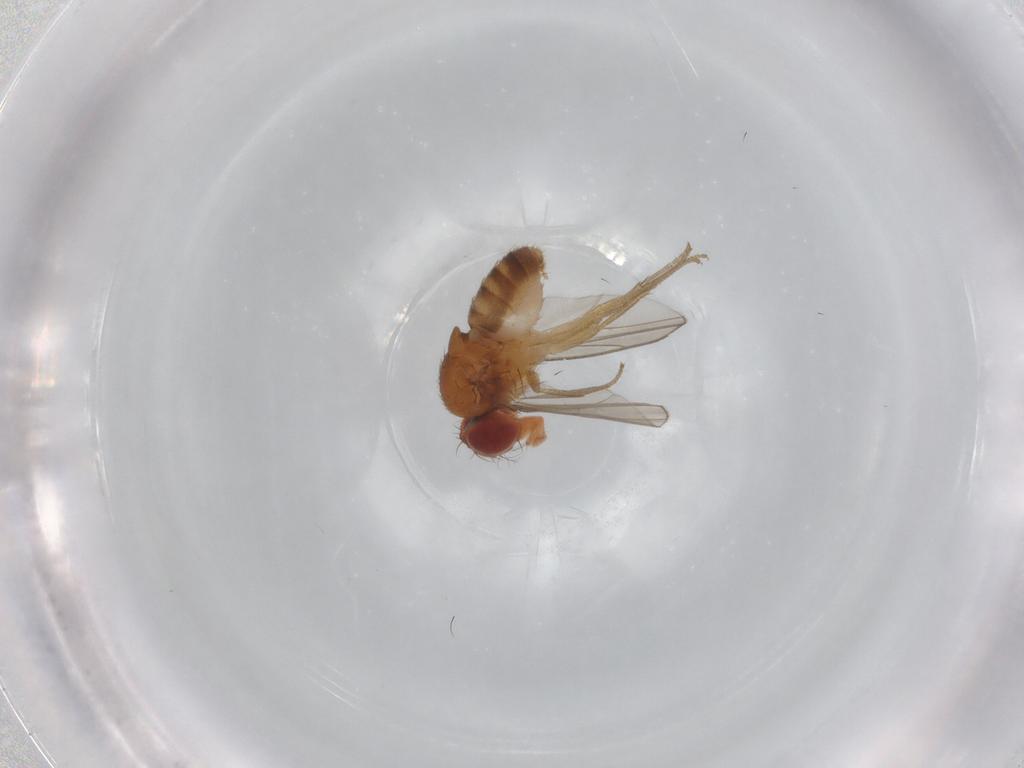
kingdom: Animalia
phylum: Arthropoda
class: Insecta
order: Diptera
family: Drosophilidae
